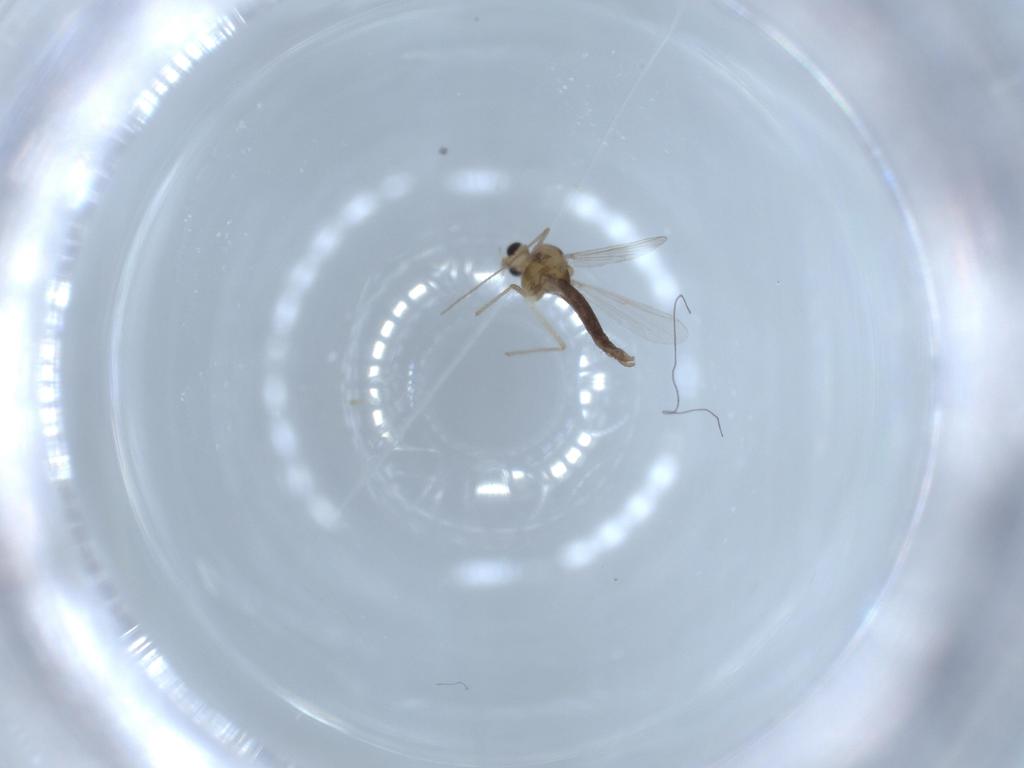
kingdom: Animalia
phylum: Arthropoda
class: Insecta
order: Diptera
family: Chironomidae
